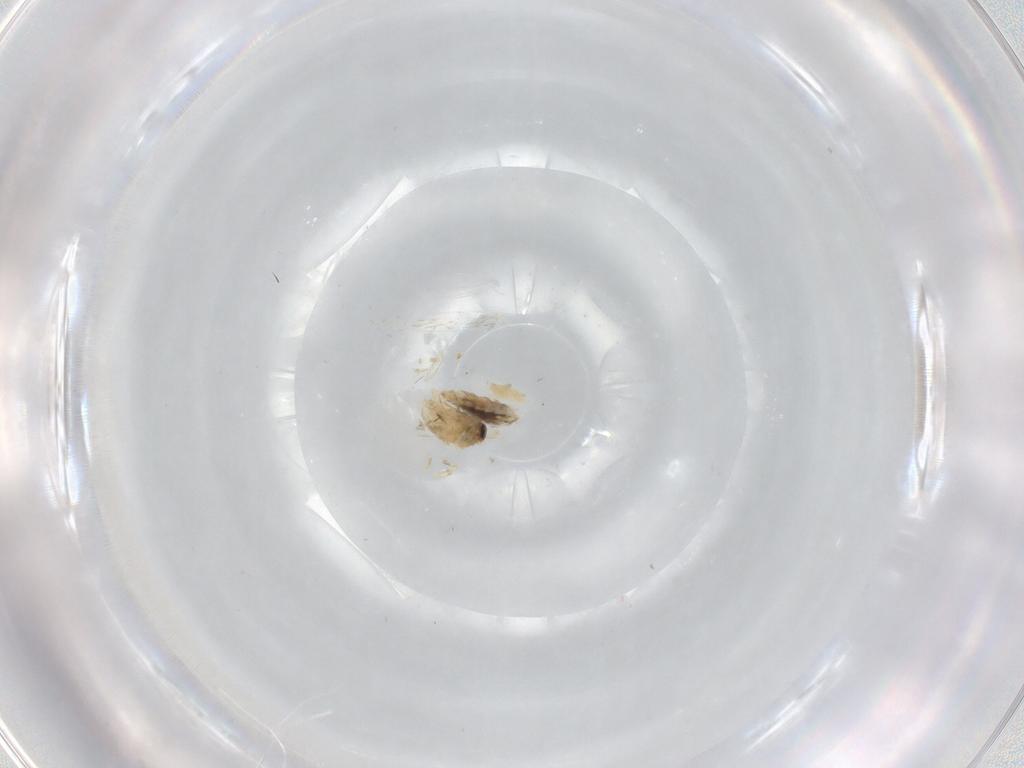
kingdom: Animalia
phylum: Arthropoda
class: Insecta
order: Lepidoptera
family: Nepticulidae
